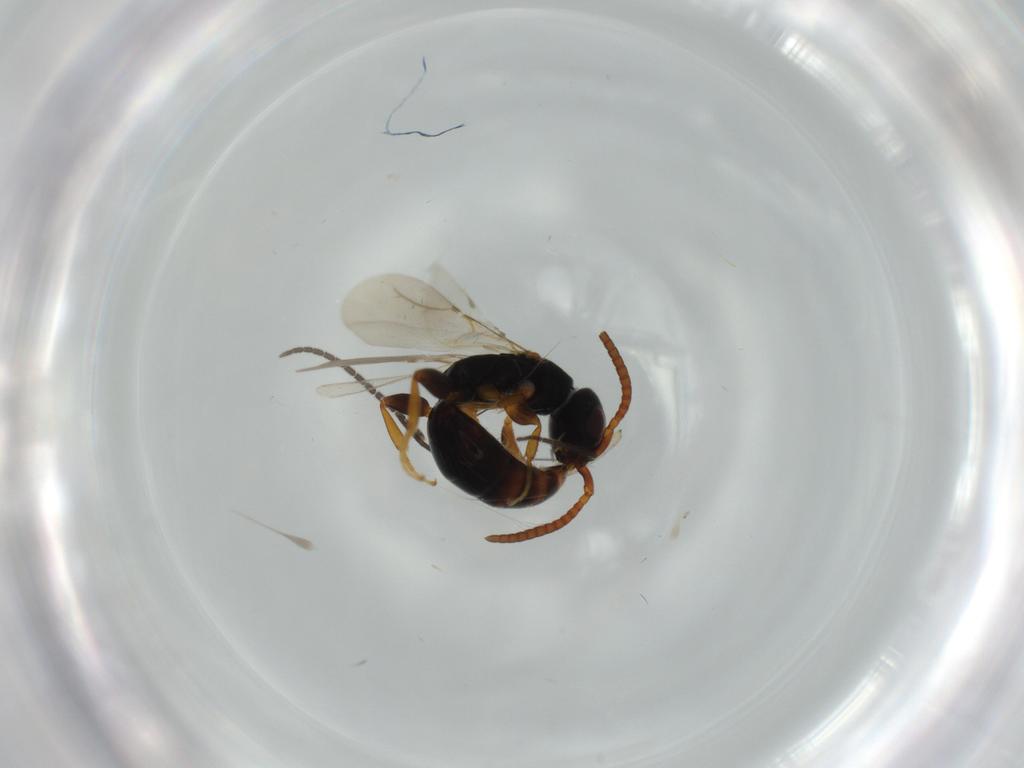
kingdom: Animalia
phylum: Arthropoda
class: Insecta
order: Hymenoptera
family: Bethylidae
